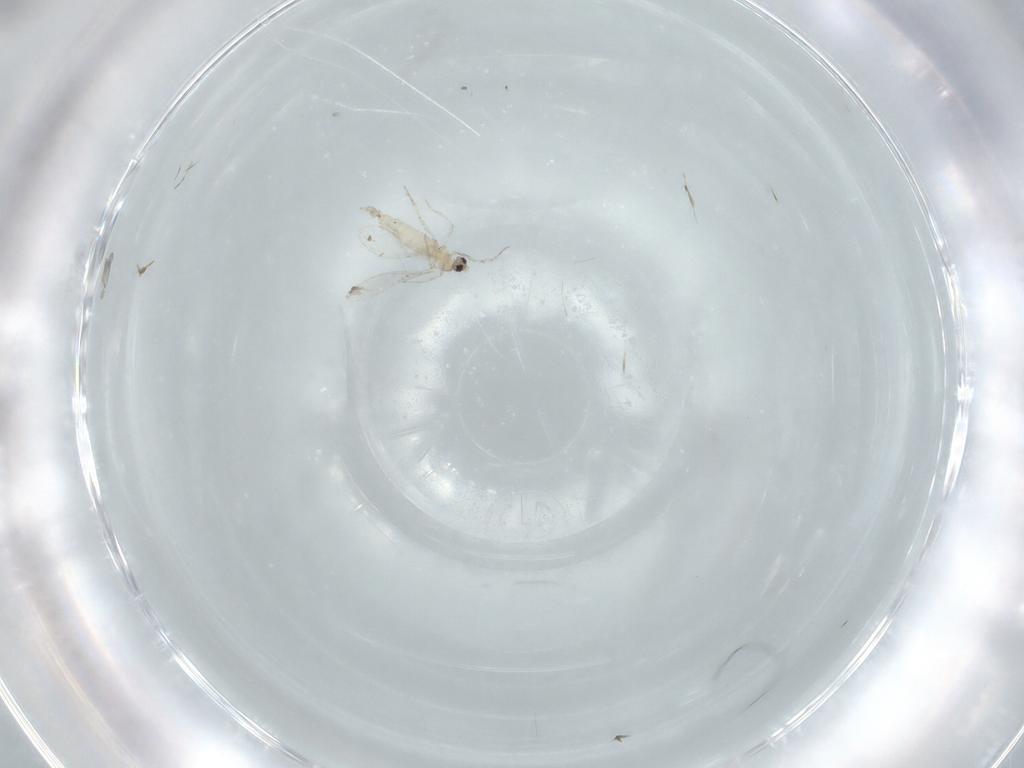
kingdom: Animalia
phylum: Arthropoda
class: Insecta
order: Diptera
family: Cecidomyiidae
